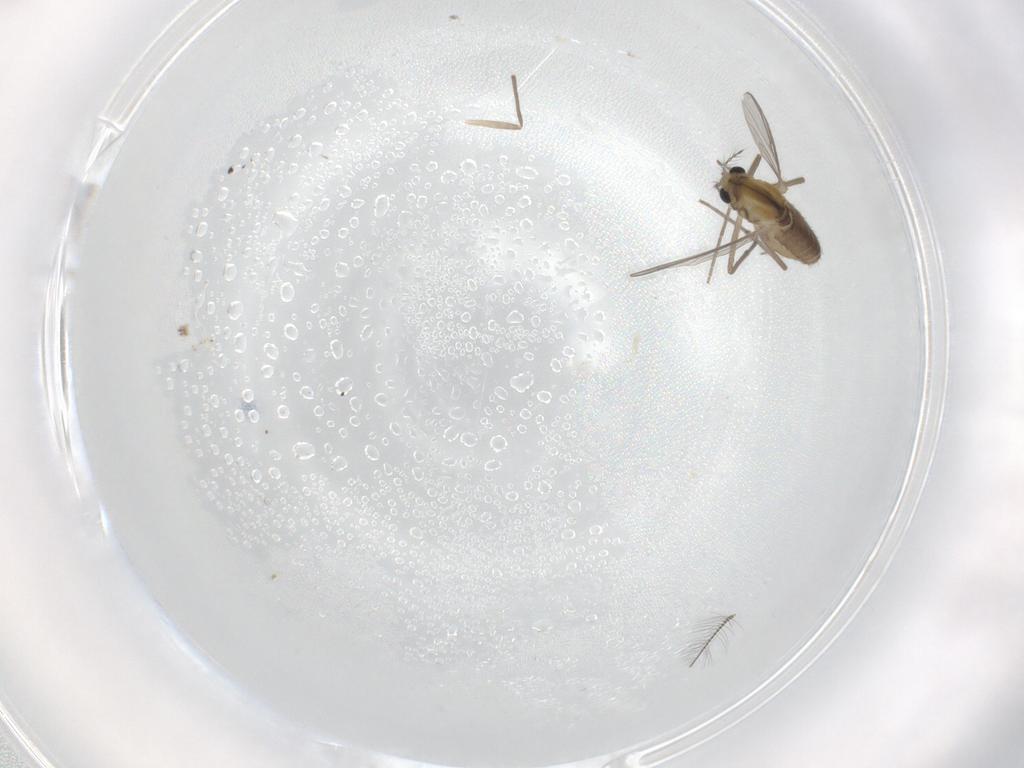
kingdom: Animalia
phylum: Arthropoda
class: Insecta
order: Diptera
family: Chironomidae
